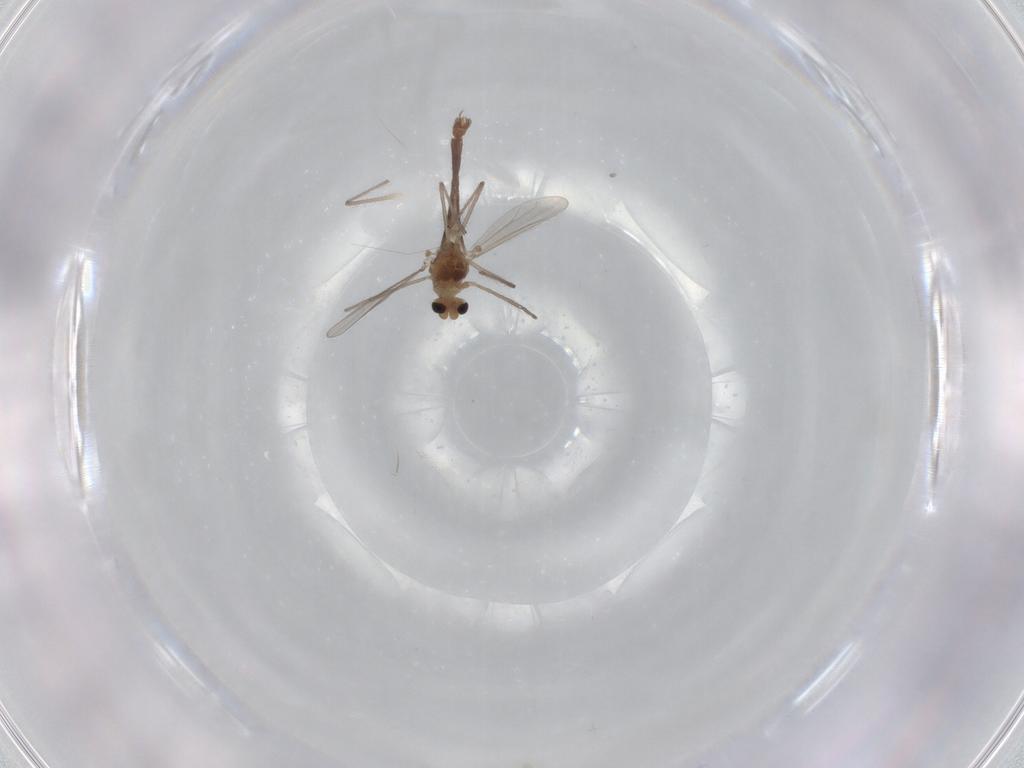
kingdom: Animalia
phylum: Arthropoda
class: Insecta
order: Diptera
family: Chironomidae
